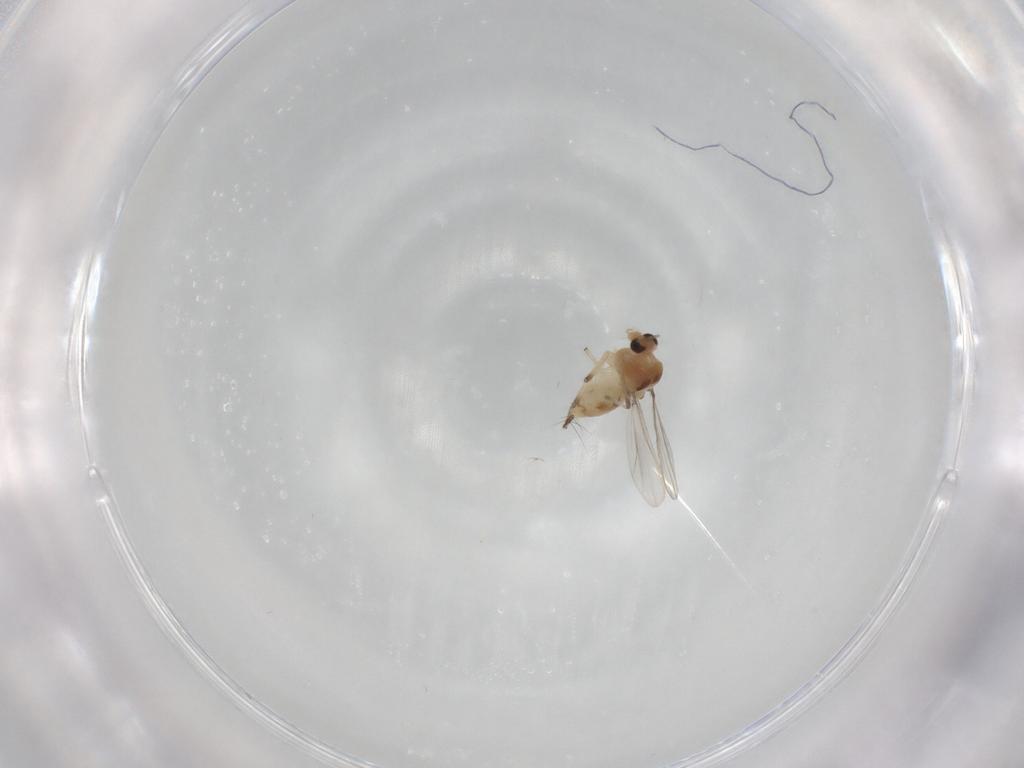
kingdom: Animalia
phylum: Arthropoda
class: Insecta
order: Diptera
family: Chironomidae
